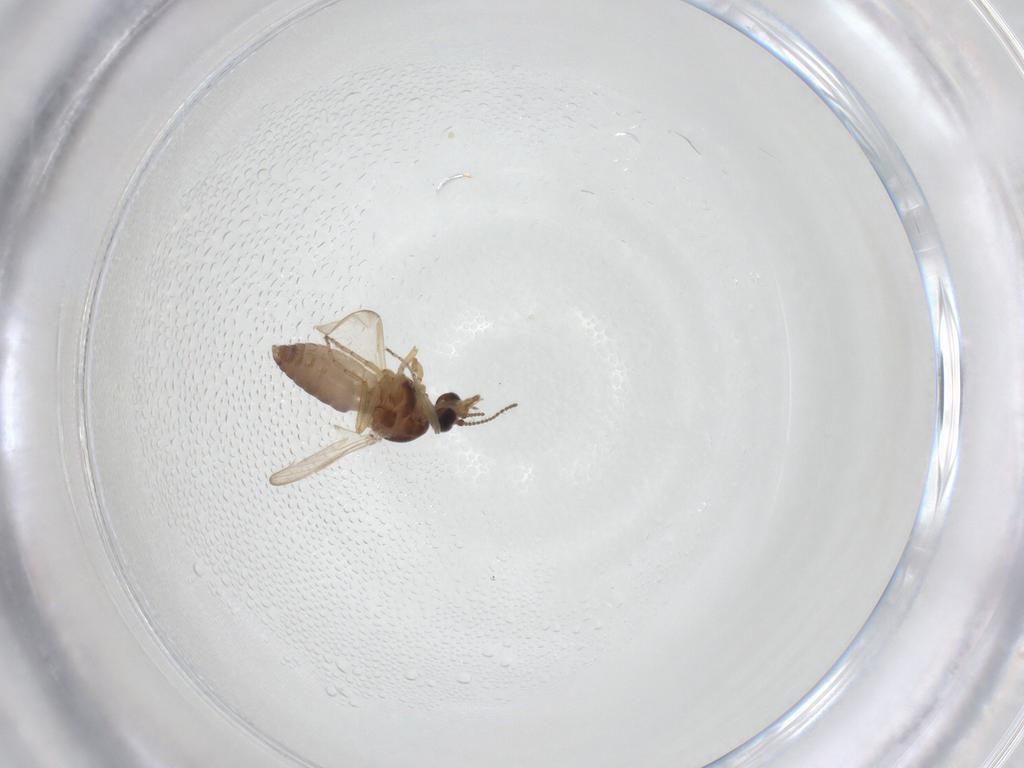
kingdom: Animalia
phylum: Arthropoda
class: Insecta
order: Diptera
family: Ceratopogonidae
